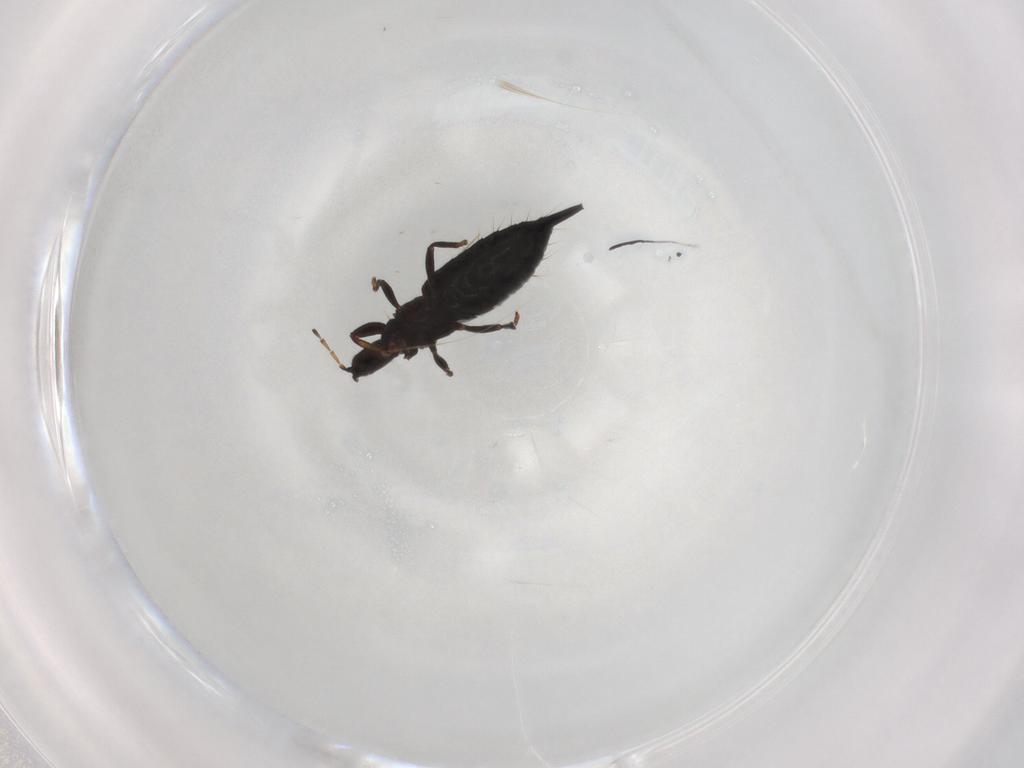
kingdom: Animalia
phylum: Arthropoda
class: Insecta
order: Thysanoptera
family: Phlaeothripidae
